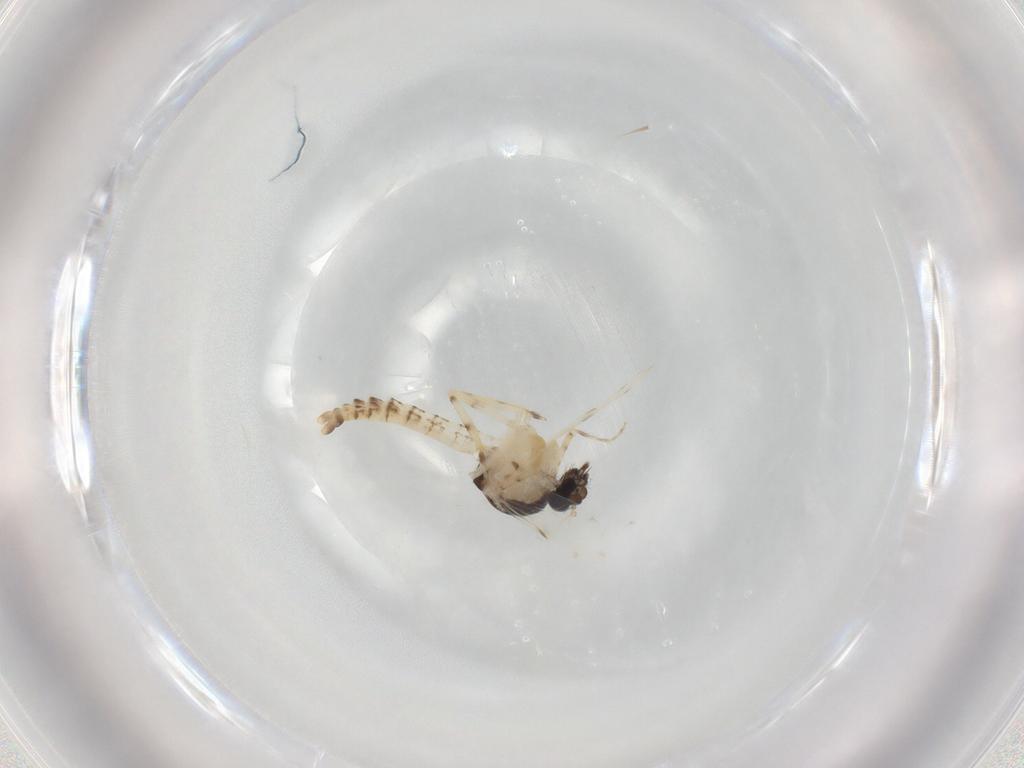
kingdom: Animalia
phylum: Arthropoda
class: Insecta
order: Diptera
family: Ceratopogonidae
